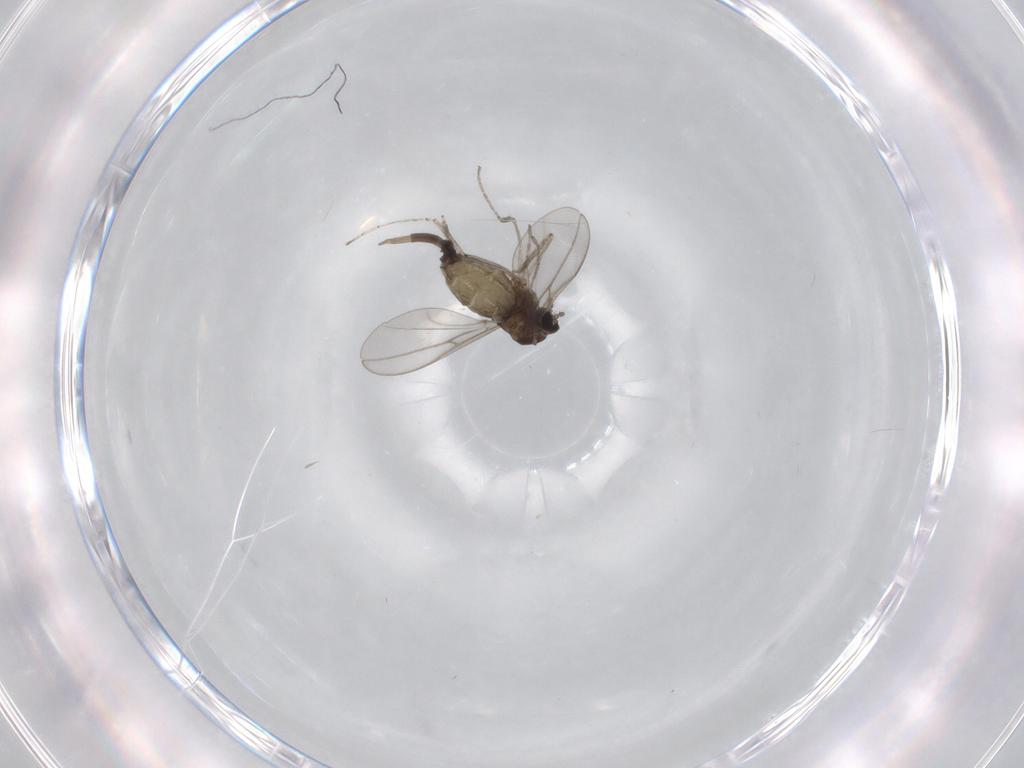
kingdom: Animalia
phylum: Arthropoda
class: Insecta
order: Diptera
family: Cecidomyiidae
